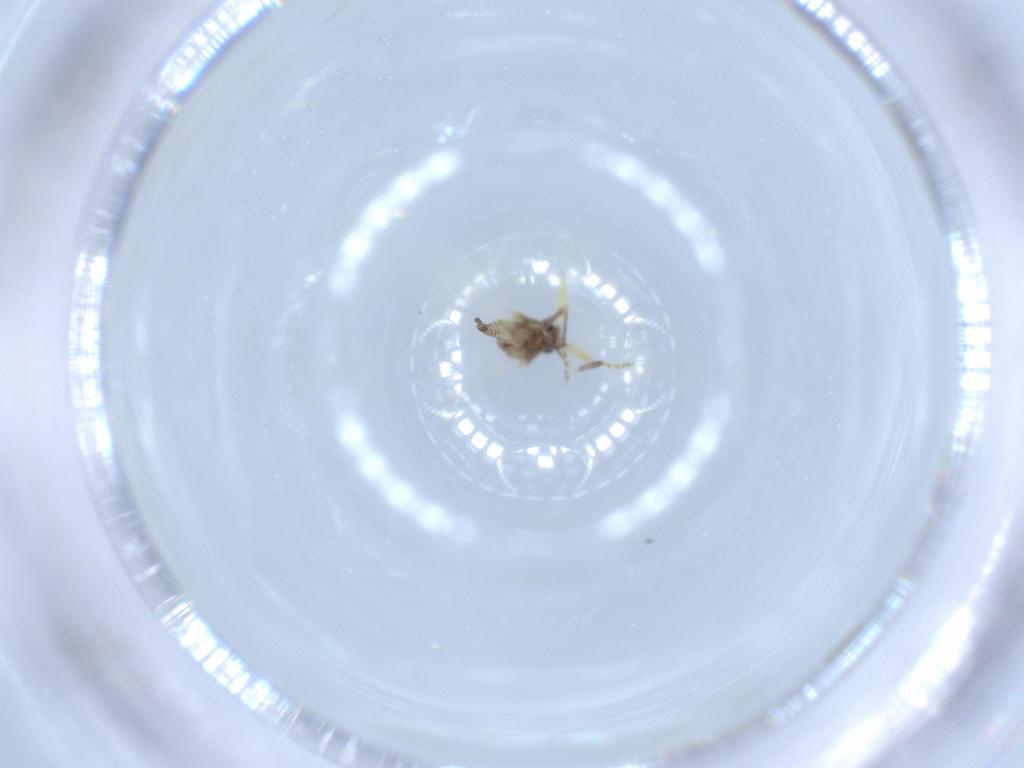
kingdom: Animalia
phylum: Arthropoda
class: Insecta
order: Diptera
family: Ceratopogonidae
